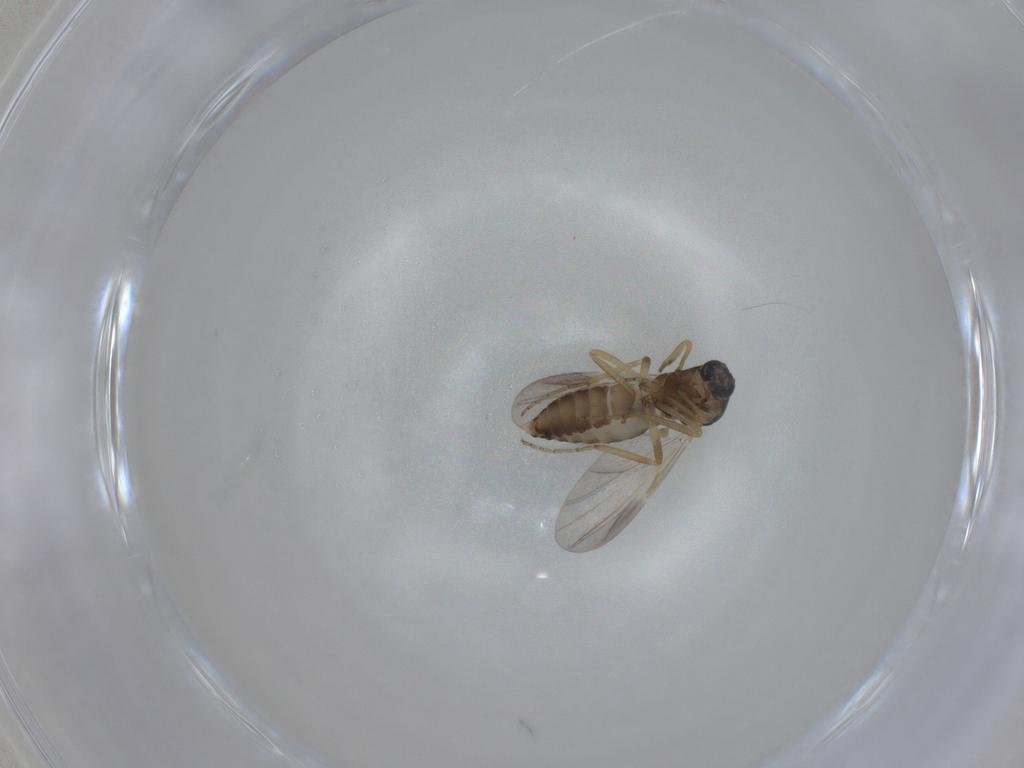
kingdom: Animalia
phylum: Arthropoda
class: Insecta
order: Diptera
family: Ceratopogonidae
